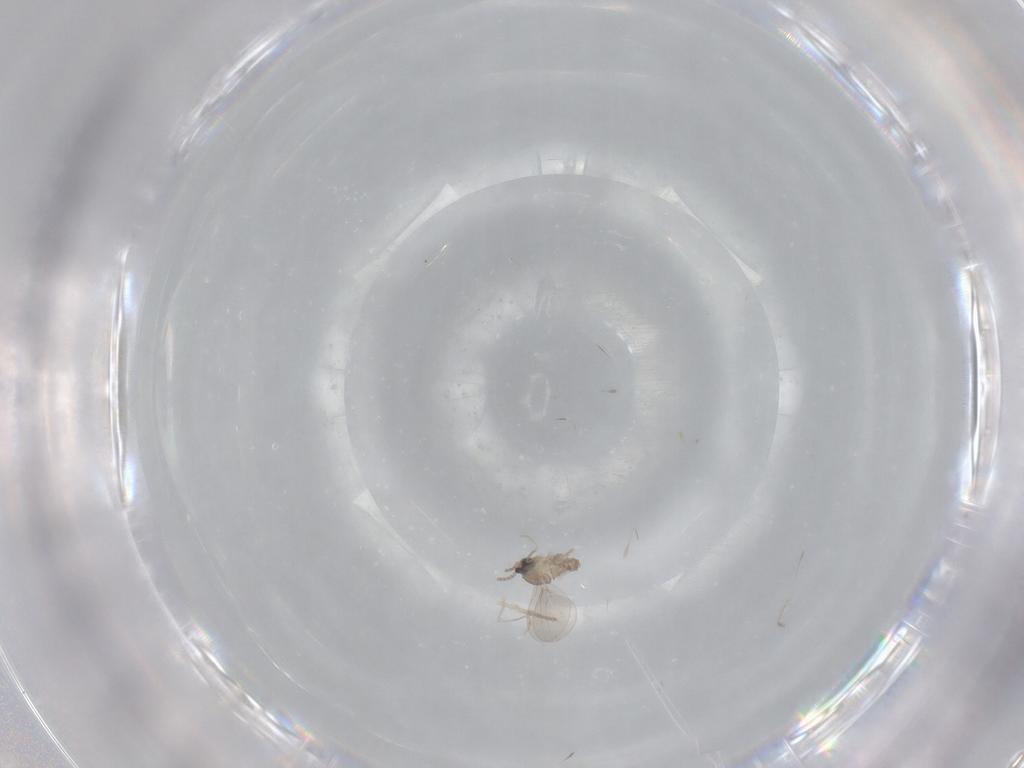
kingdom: Animalia
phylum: Arthropoda
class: Insecta
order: Diptera
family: Cecidomyiidae
